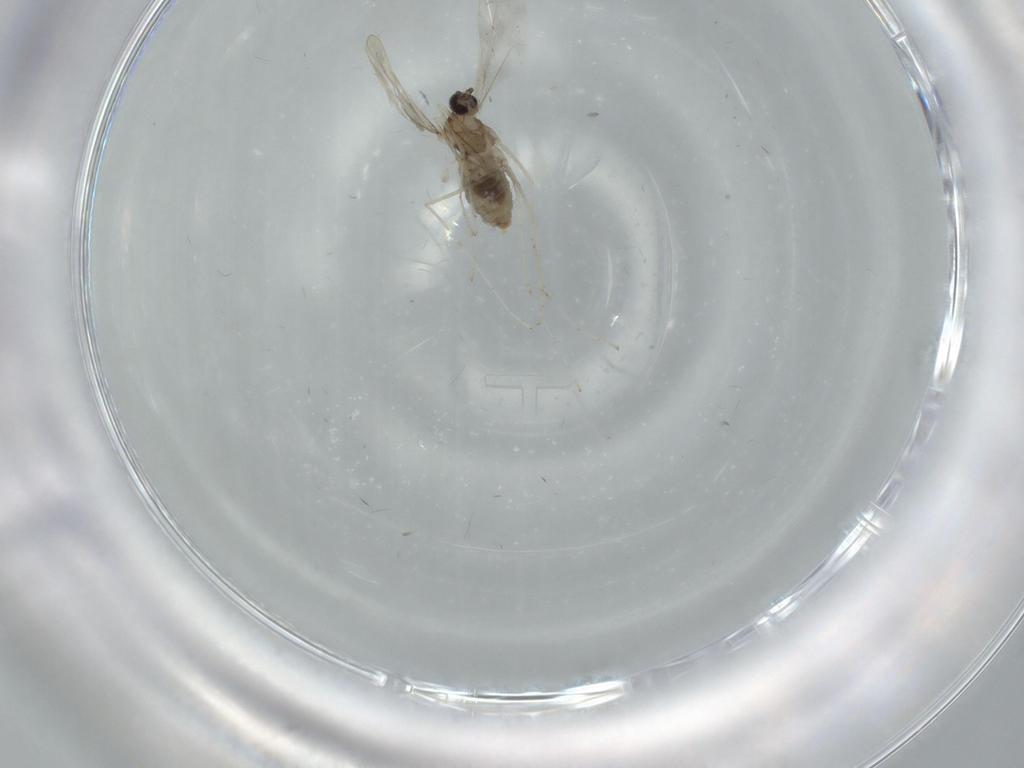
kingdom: Animalia
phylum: Arthropoda
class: Insecta
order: Diptera
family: Cecidomyiidae
